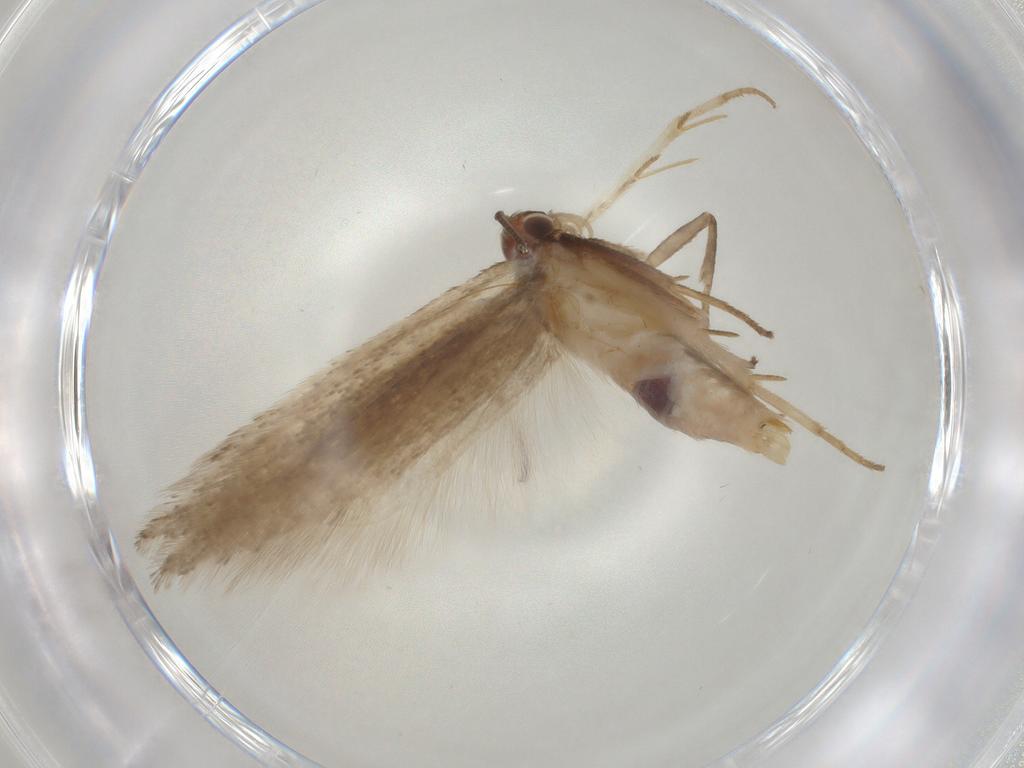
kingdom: Animalia
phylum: Arthropoda
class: Insecta
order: Lepidoptera
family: Gelechiidae
